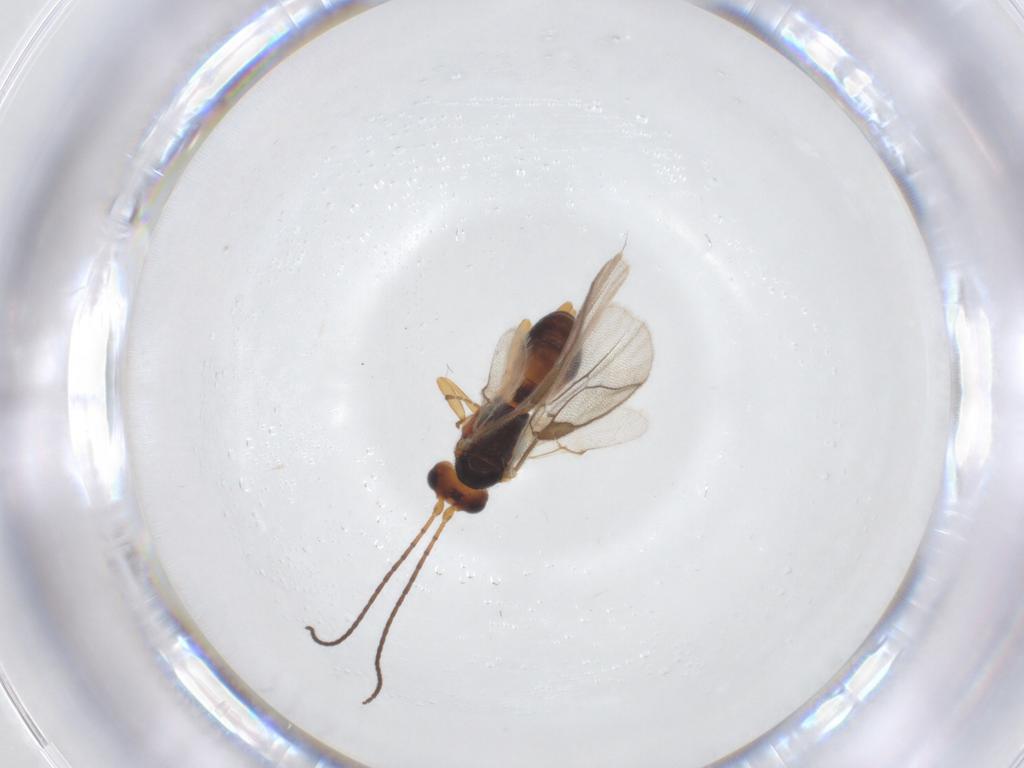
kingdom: Animalia
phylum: Arthropoda
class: Insecta
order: Hymenoptera
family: Braconidae
